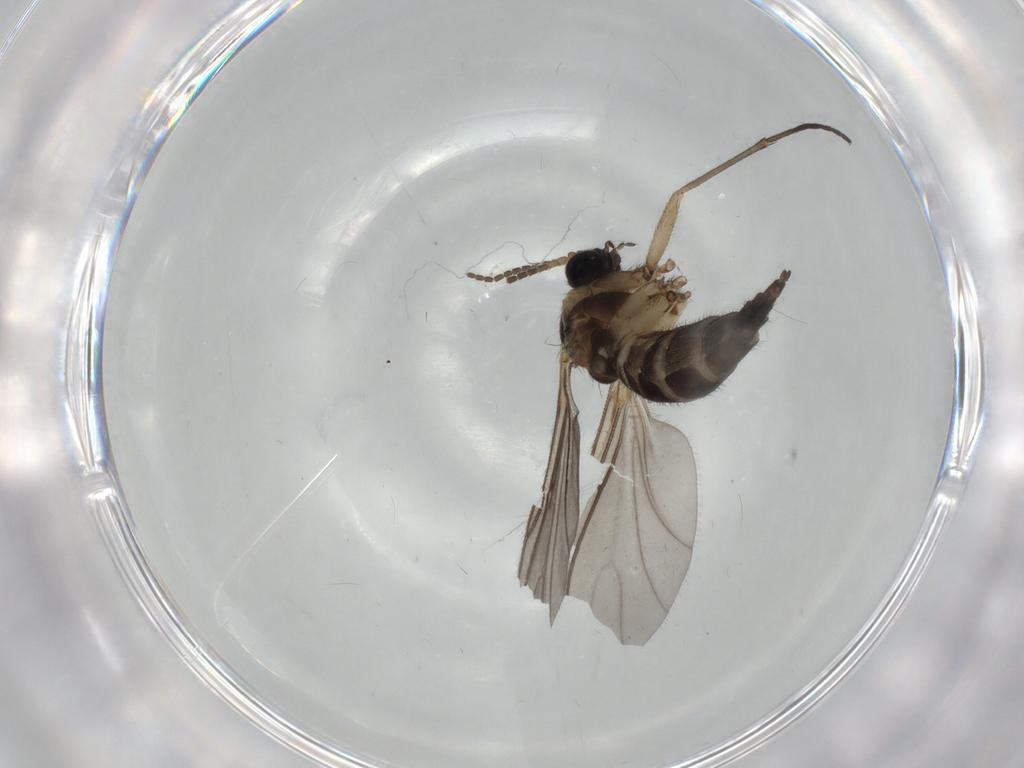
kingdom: Animalia
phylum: Arthropoda
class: Insecta
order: Diptera
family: Sciaridae
